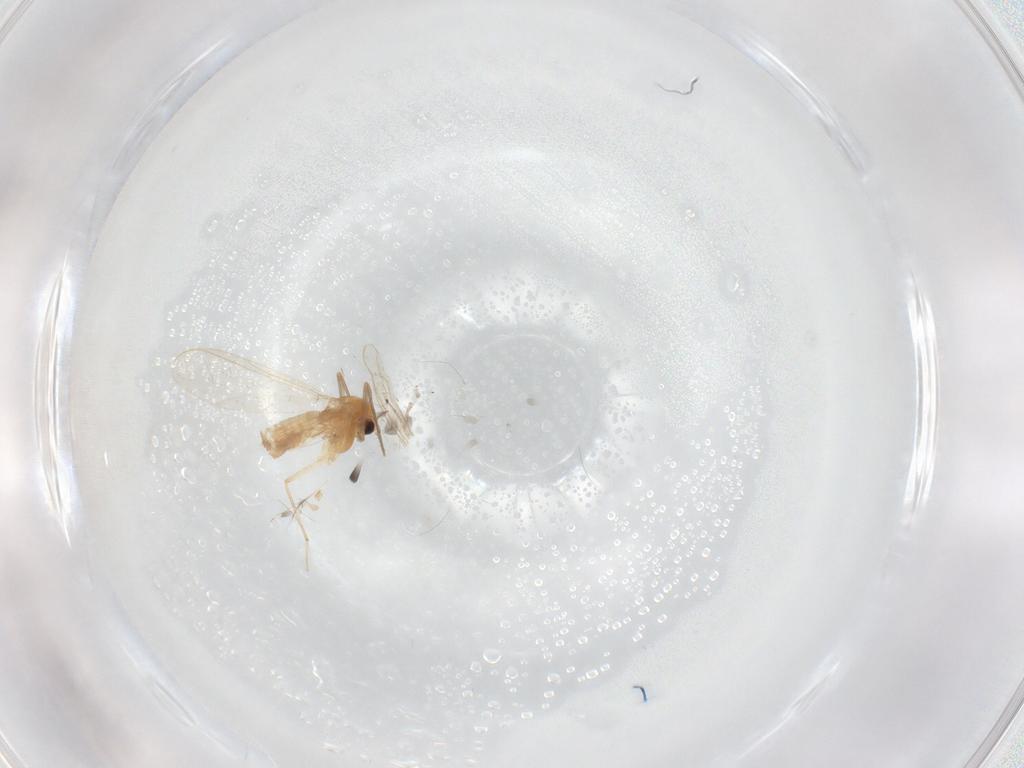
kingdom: Animalia
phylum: Arthropoda
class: Insecta
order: Diptera
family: Chironomidae
